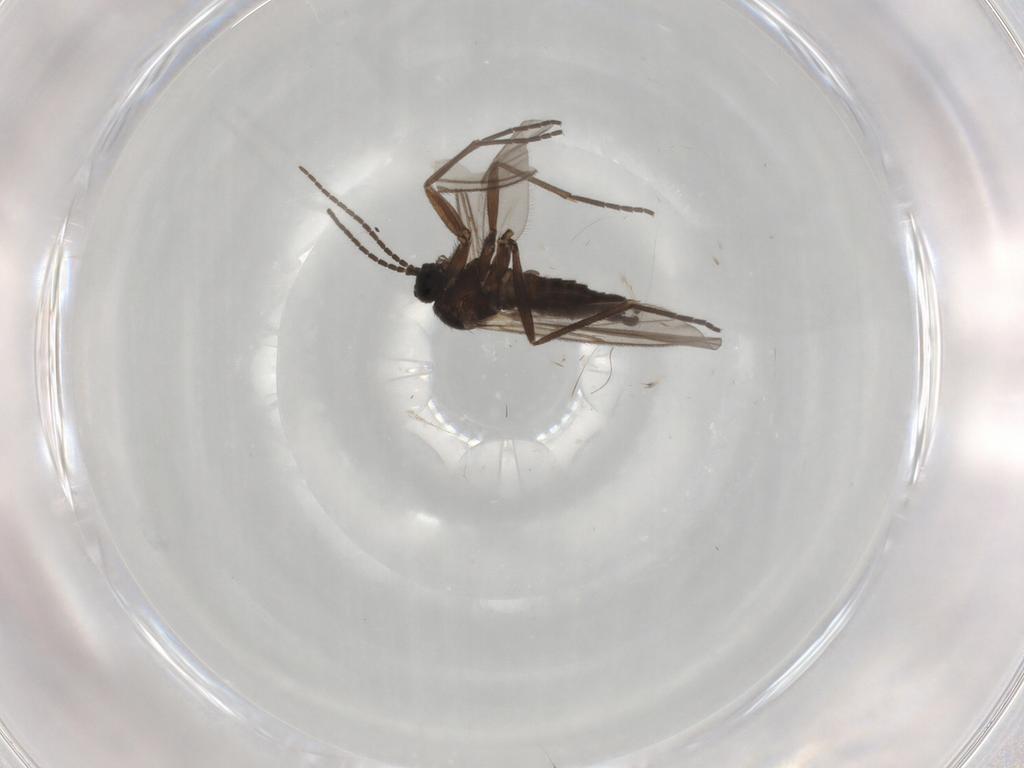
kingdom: Animalia
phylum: Arthropoda
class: Insecta
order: Diptera
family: Sciaridae
